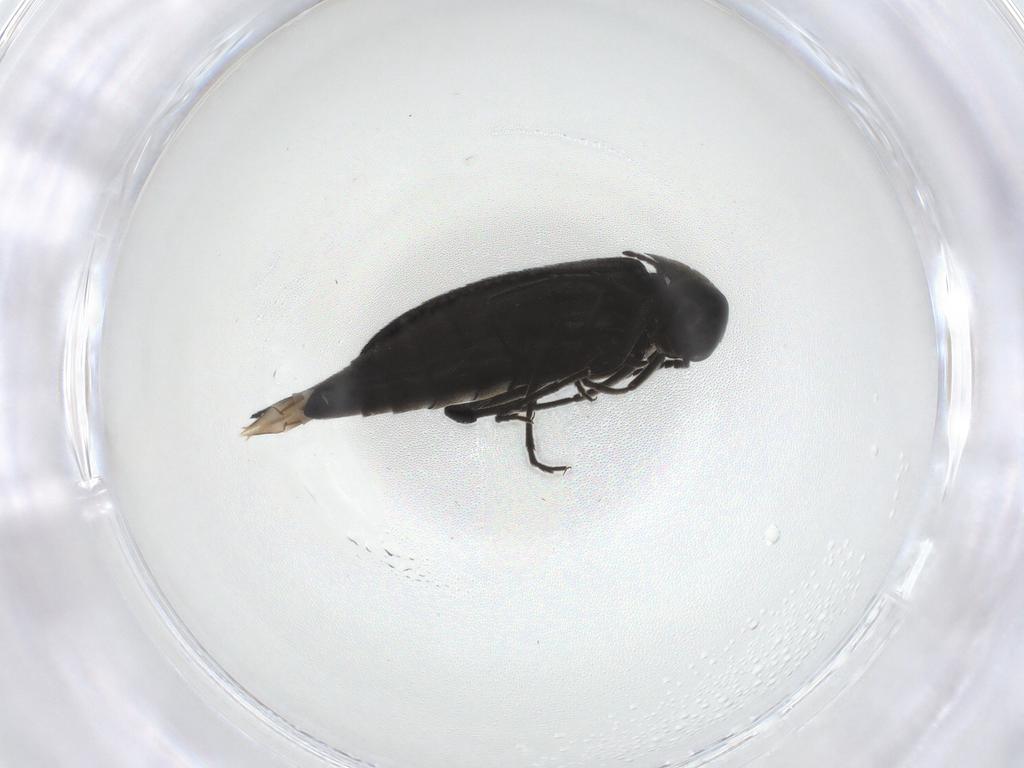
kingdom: Animalia
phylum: Arthropoda
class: Insecta
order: Coleoptera
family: Mordellidae
